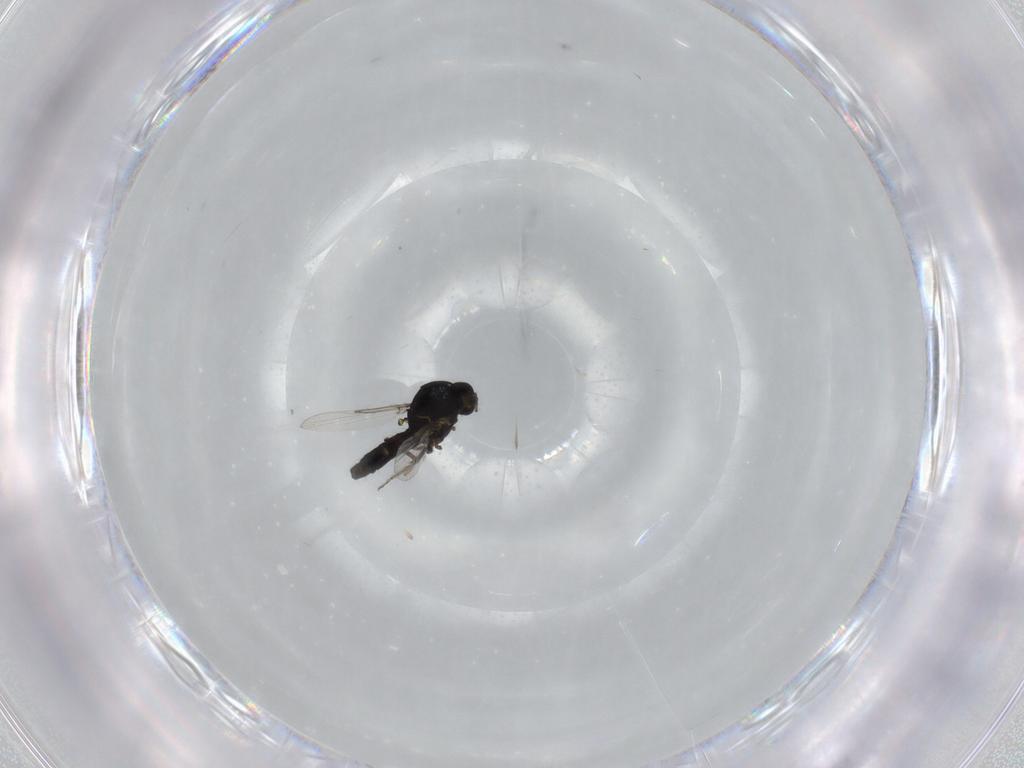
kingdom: Animalia
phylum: Arthropoda
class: Insecta
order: Diptera
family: Ceratopogonidae
